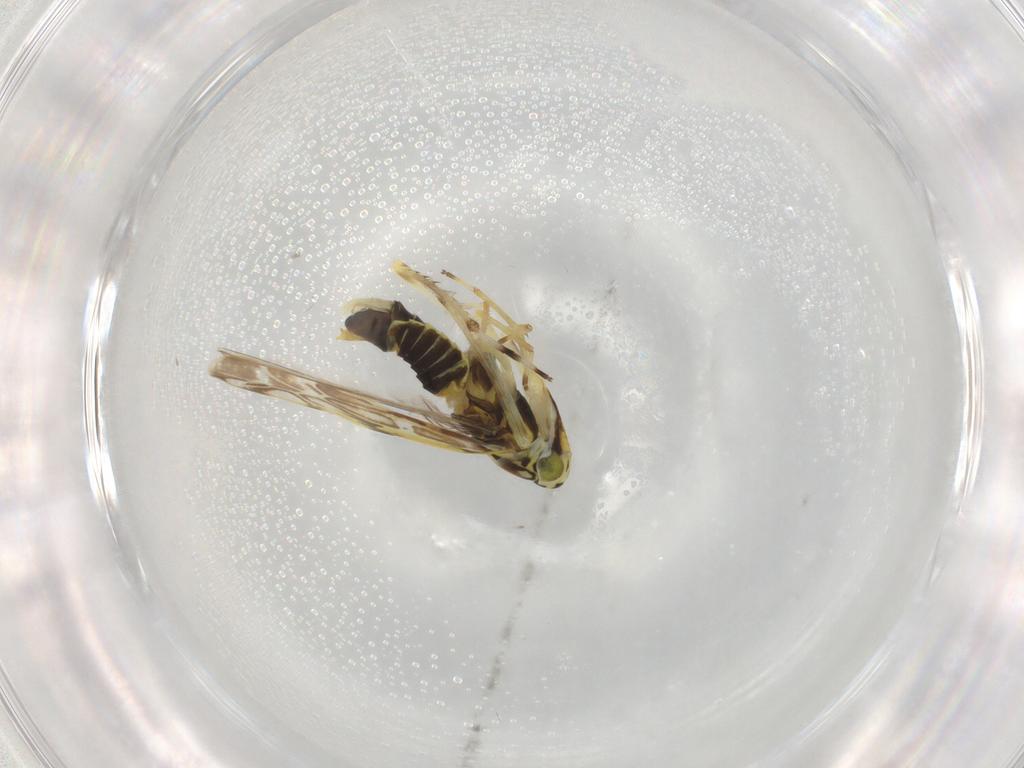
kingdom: Animalia
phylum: Arthropoda
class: Insecta
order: Hemiptera
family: Cicadellidae
